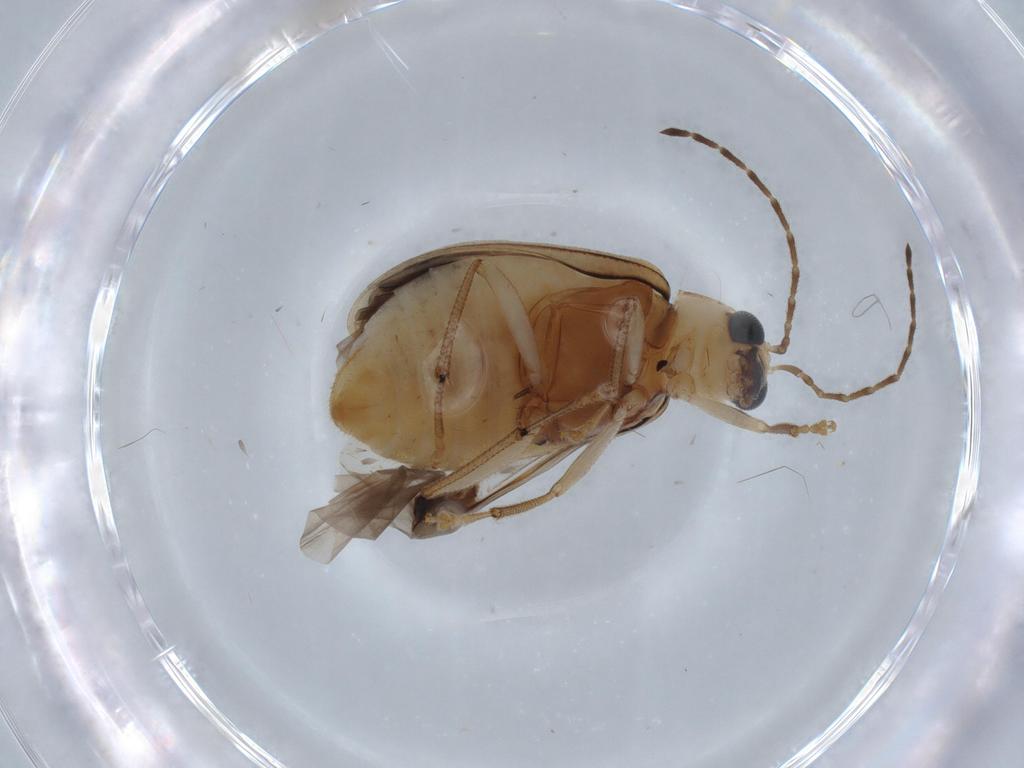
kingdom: Animalia
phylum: Arthropoda
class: Insecta
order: Coleoptera
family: Chrysomelidae
